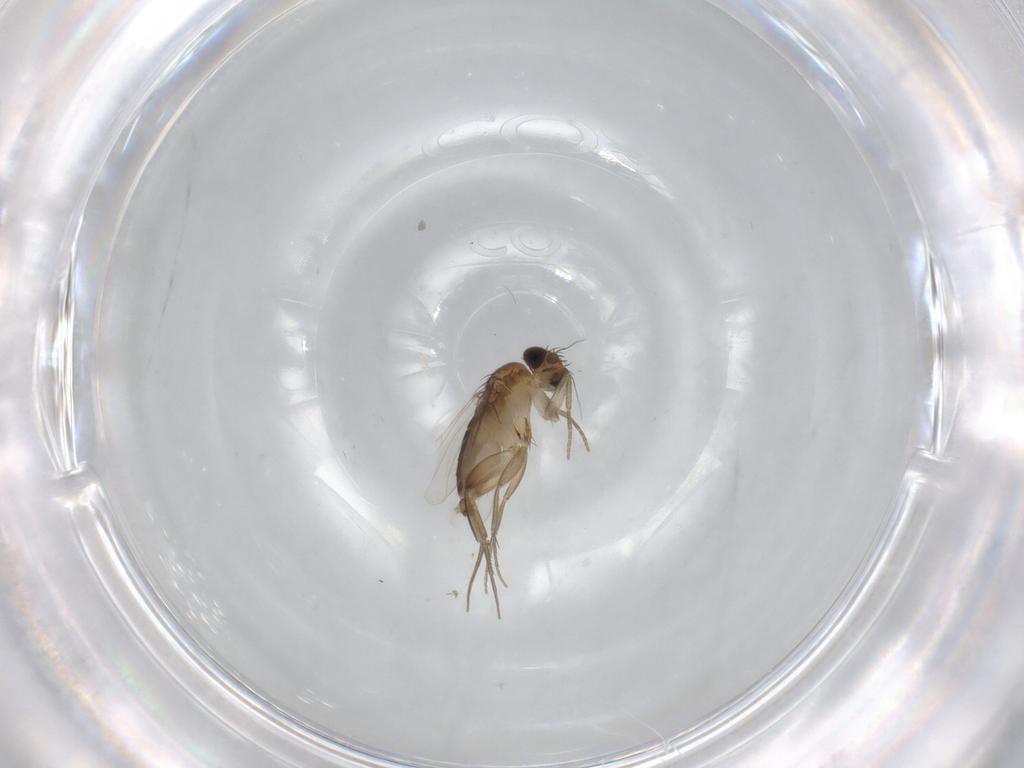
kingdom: Animalia
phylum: Arthropoda
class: Insecta
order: Diptera
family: Phoridae
